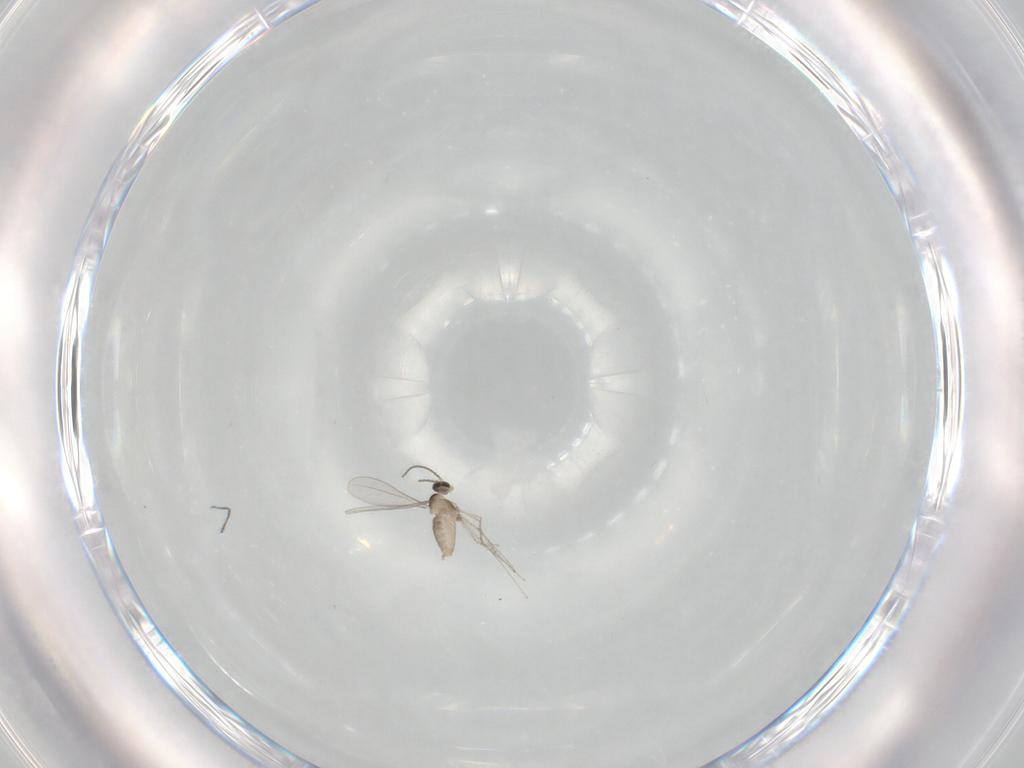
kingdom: Animalia
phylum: Arthropoda
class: Insecta
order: Diptera
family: Cecidomyiidae
